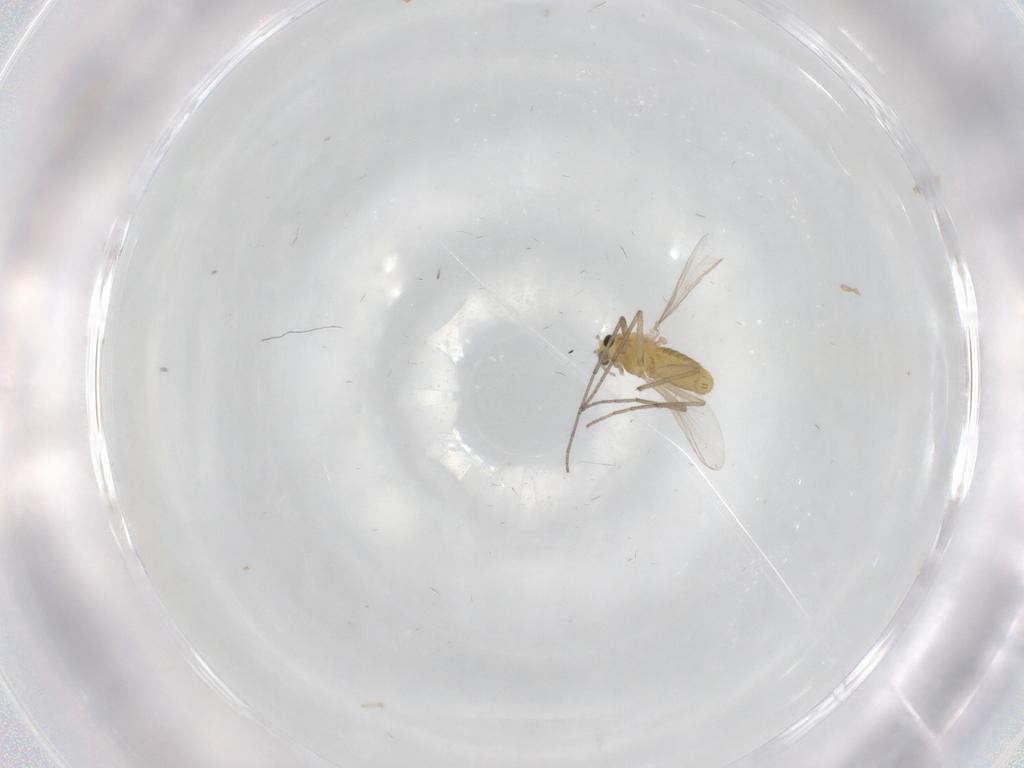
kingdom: Animalia
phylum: Arthropoda
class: Insecta
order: Diptera
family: Chironomidae
